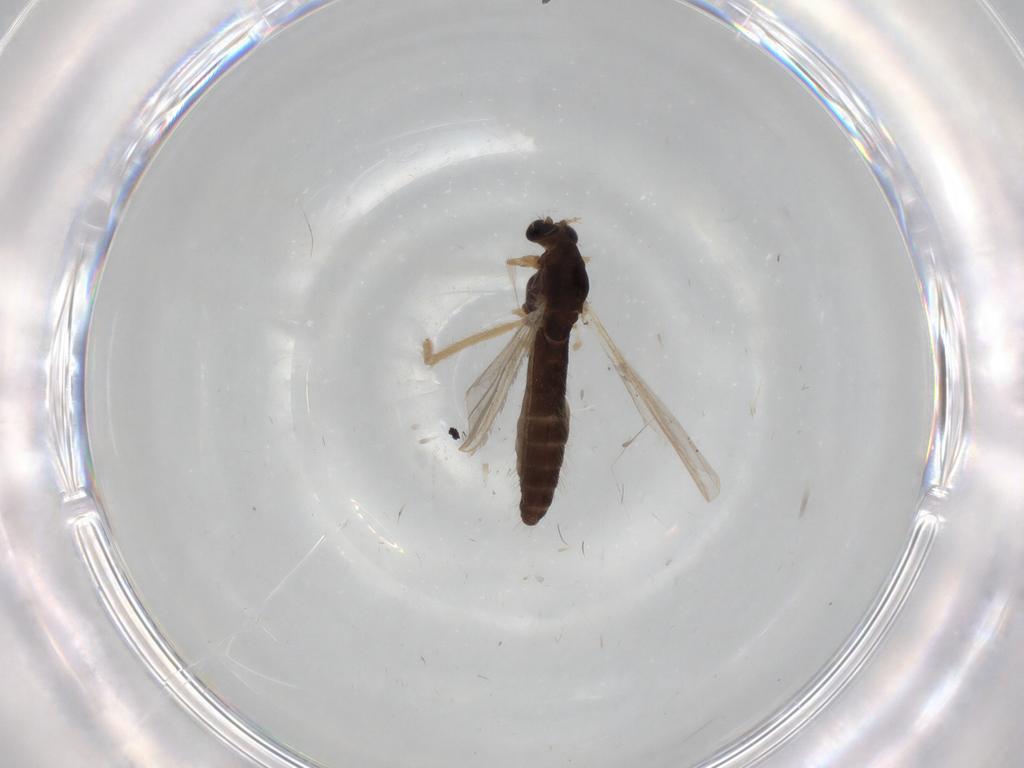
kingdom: Animalia
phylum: Arthropoda
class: Insecta
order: Diptera
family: Chironomidae
